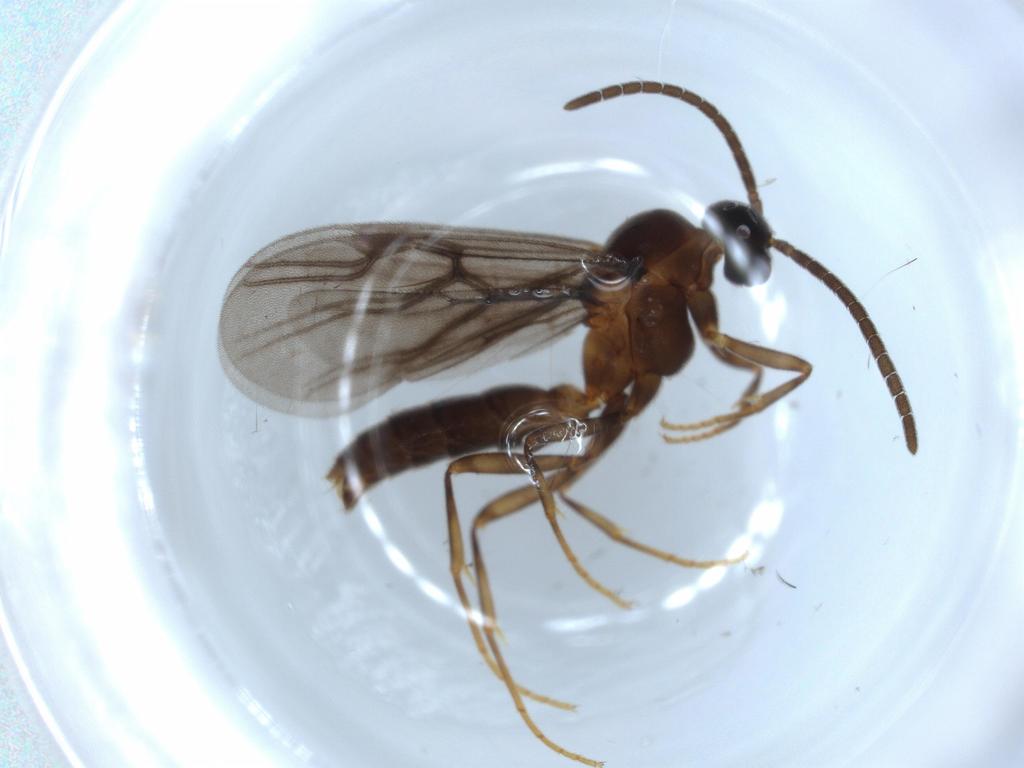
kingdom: Animalia
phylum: Arthropoda
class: Insecta
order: Hymenoptera
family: Formicidae
